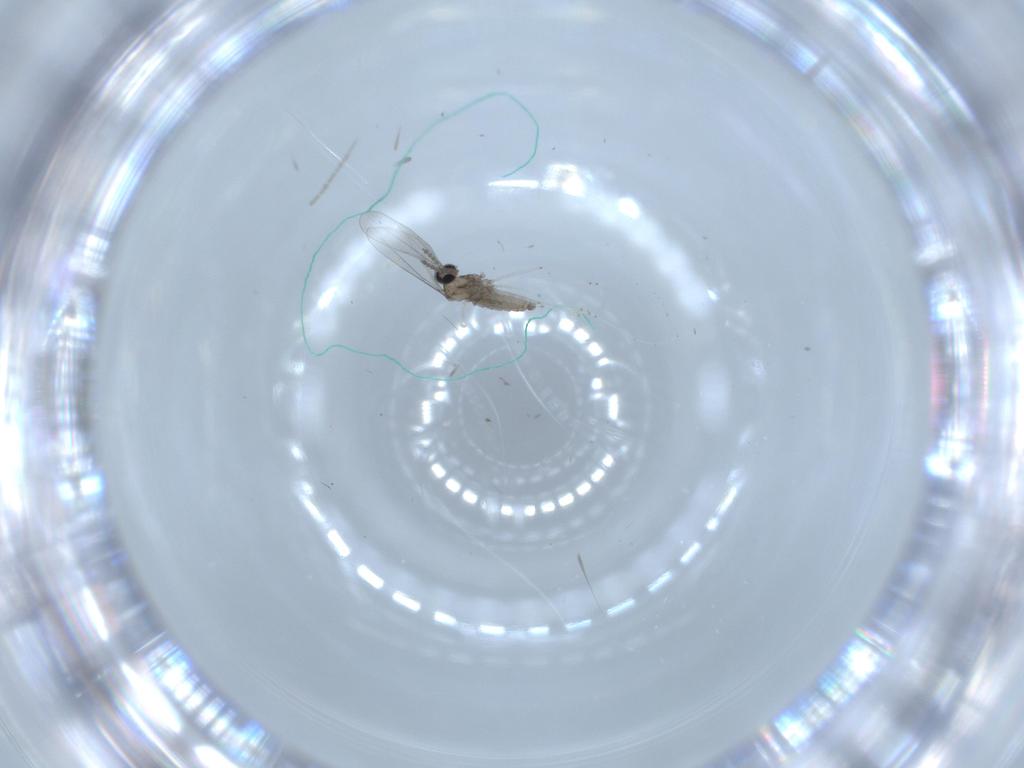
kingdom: Animalia
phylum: Arthropoda
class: Insecta
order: Diptera
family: Cecidomyiidae
